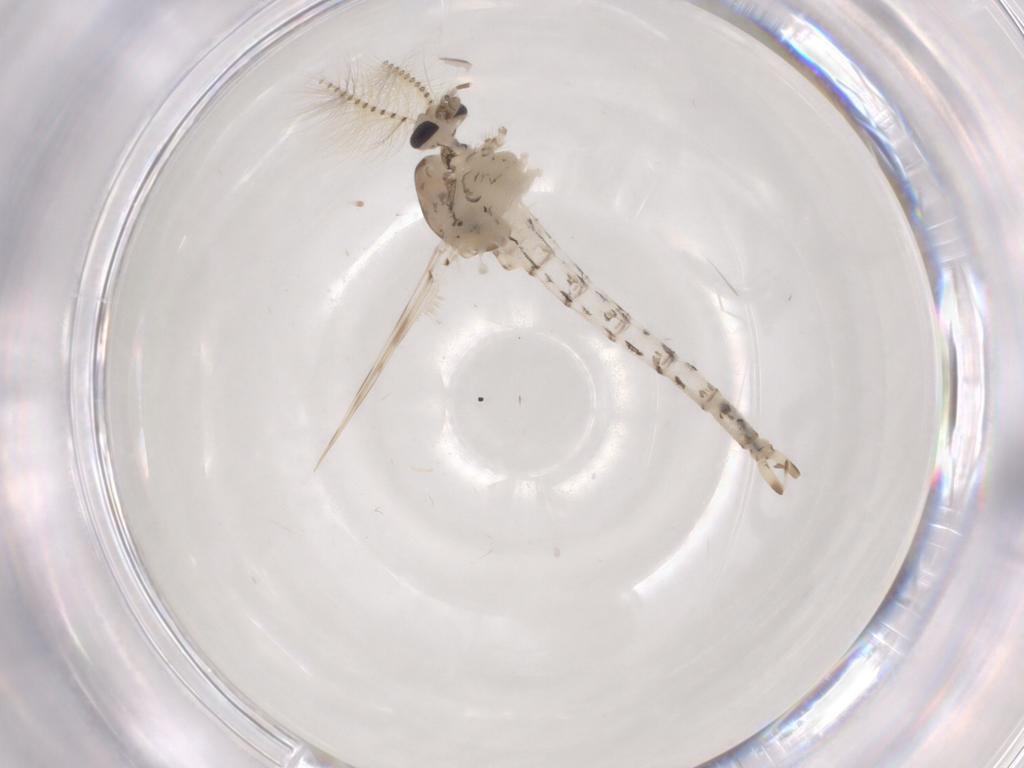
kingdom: Animalia
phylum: Arthropoda
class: Insecta
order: Diptera
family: Chaoboridae
